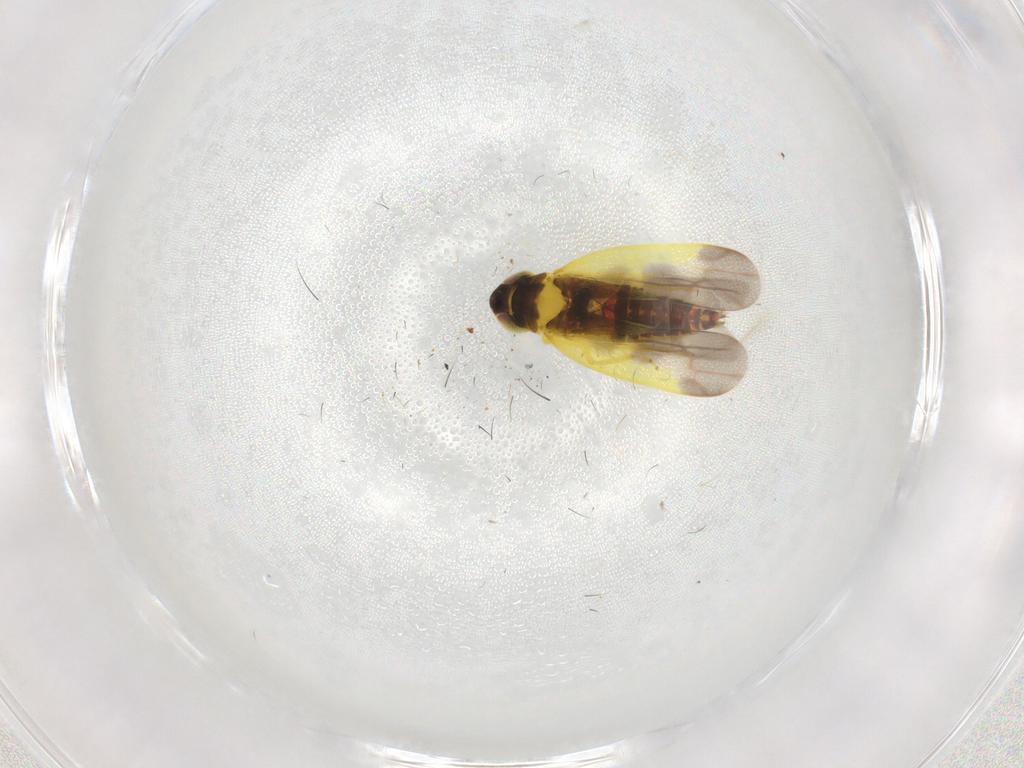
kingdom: Animalia
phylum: Arthropoda
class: Insecta
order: Hemiptera
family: Cicadellidae
